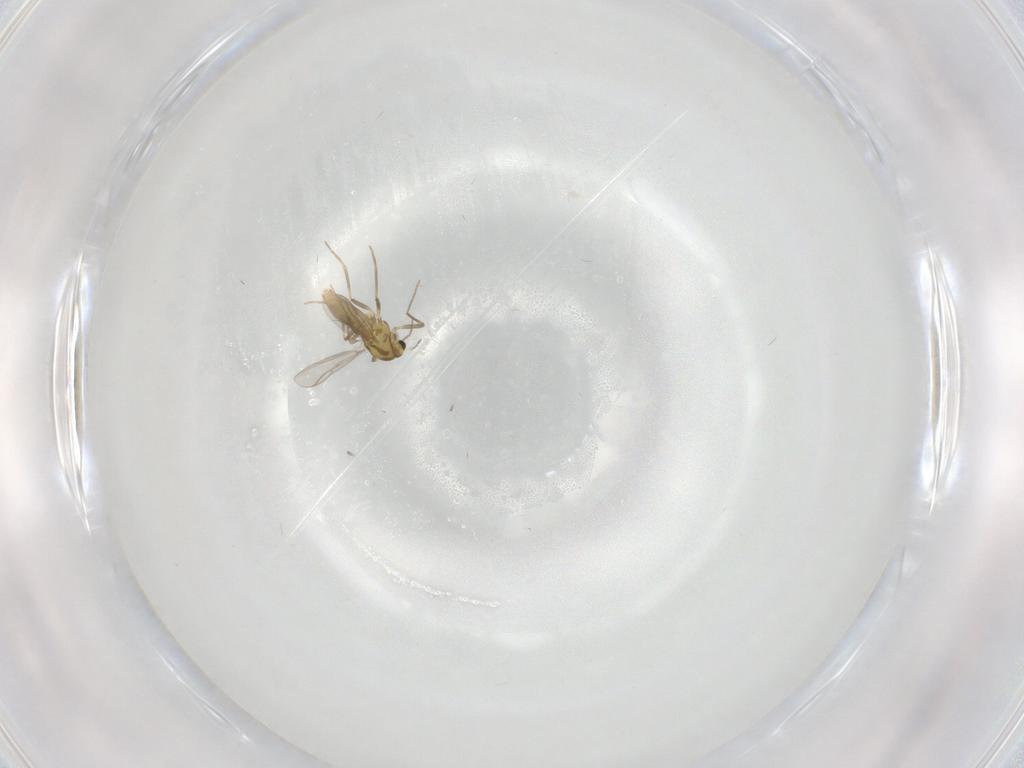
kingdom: Animalia
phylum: Arthropoda
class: Insecta
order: Diptera
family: Chironomidae
